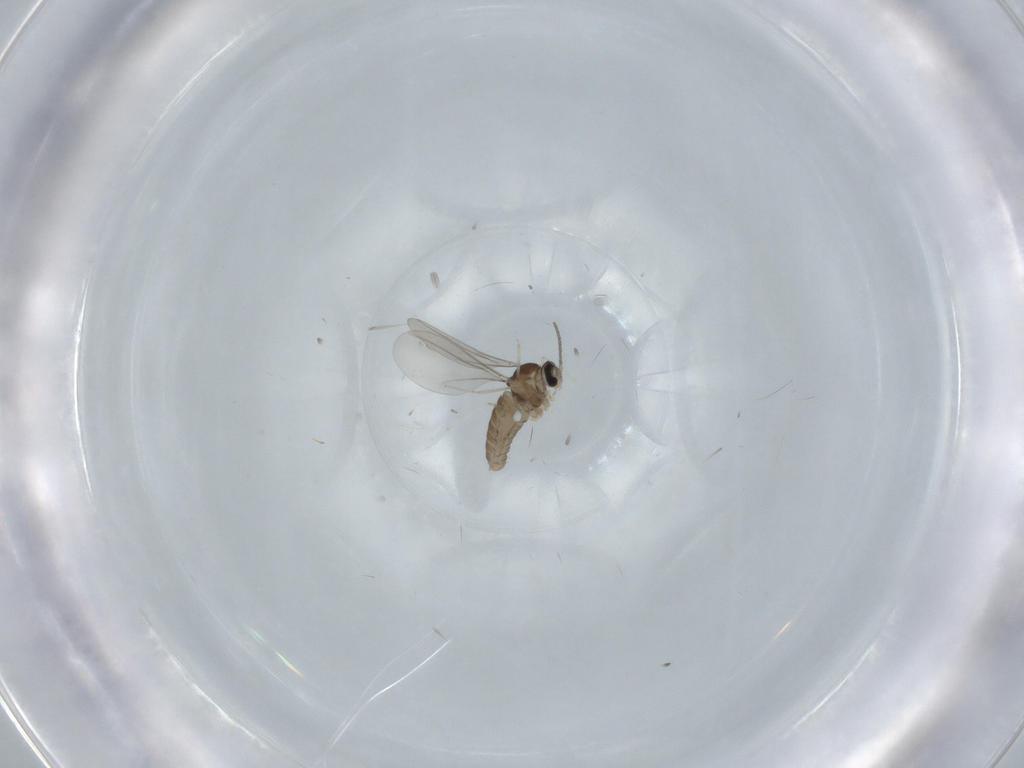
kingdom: Animalia
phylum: Arthropoda
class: Insecta
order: Diptera
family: Cecidomyiidae
